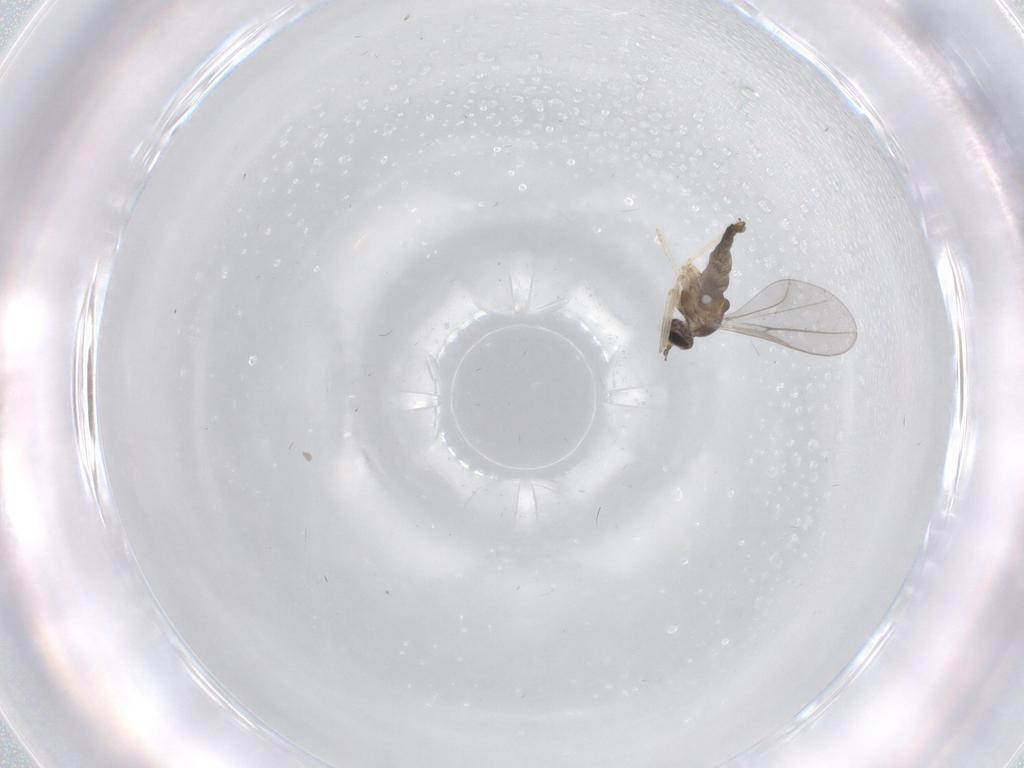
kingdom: Animalia
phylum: Arthropoda
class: Insecta
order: Diptera
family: Cecidomyiidae
